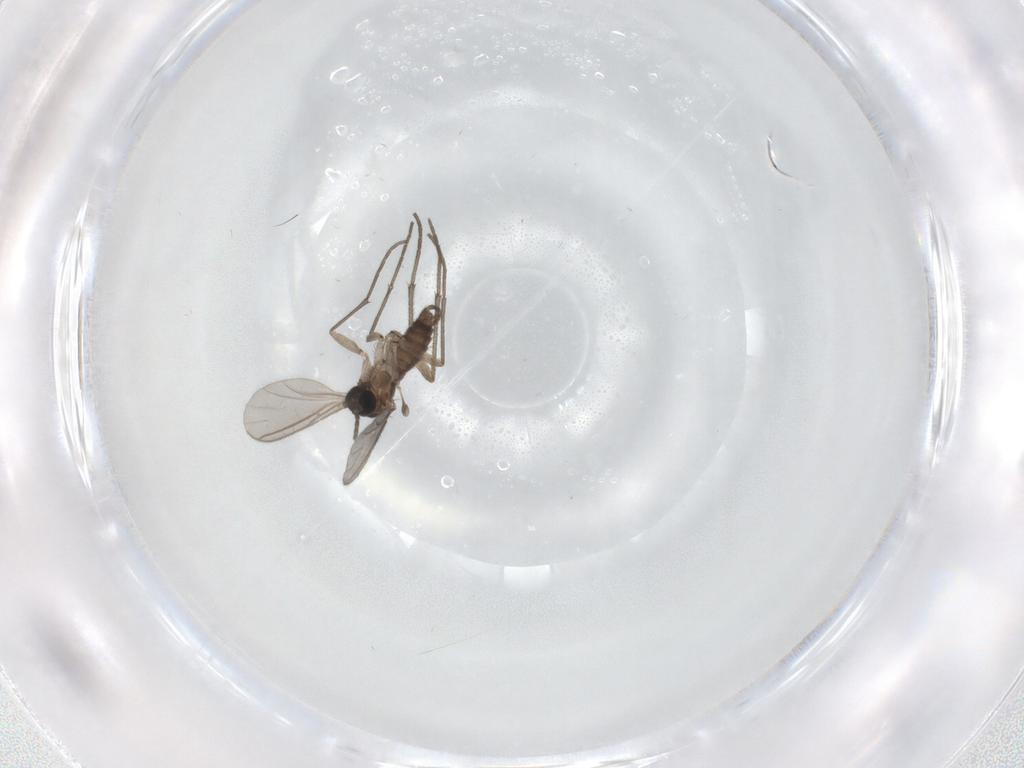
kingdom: Animalia
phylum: Arthropoda
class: Insecta
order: Diptera
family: Sciaridae
